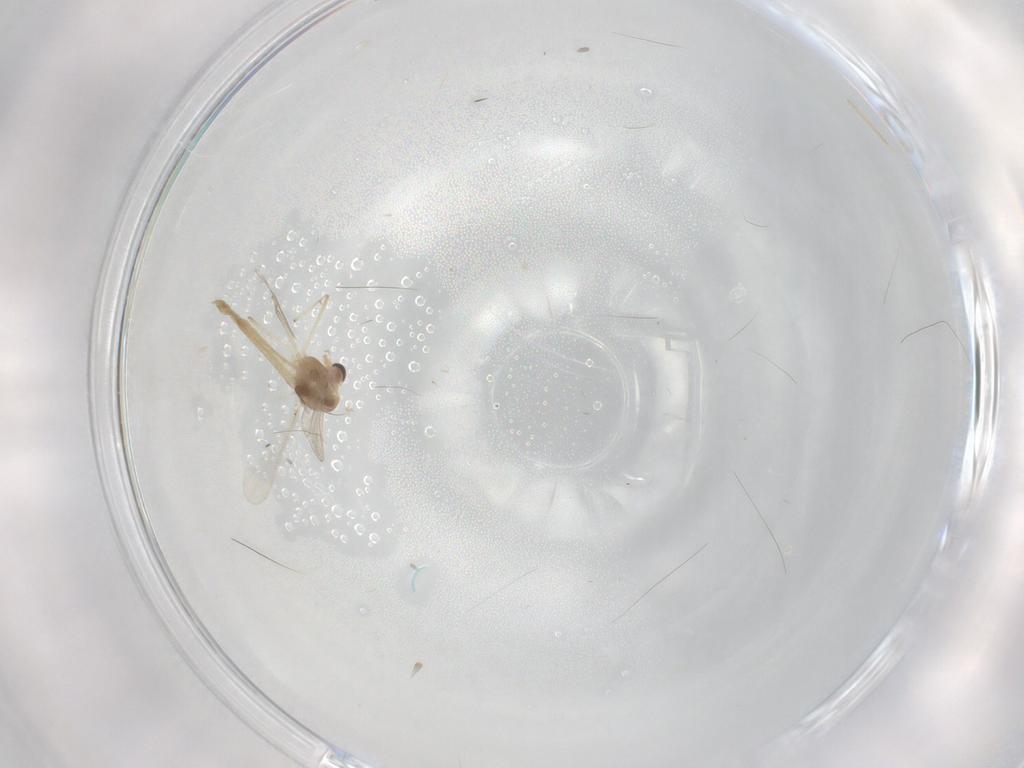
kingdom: Animalia
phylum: Arthropoda
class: Insecta
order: Diptera
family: Chironomidae
